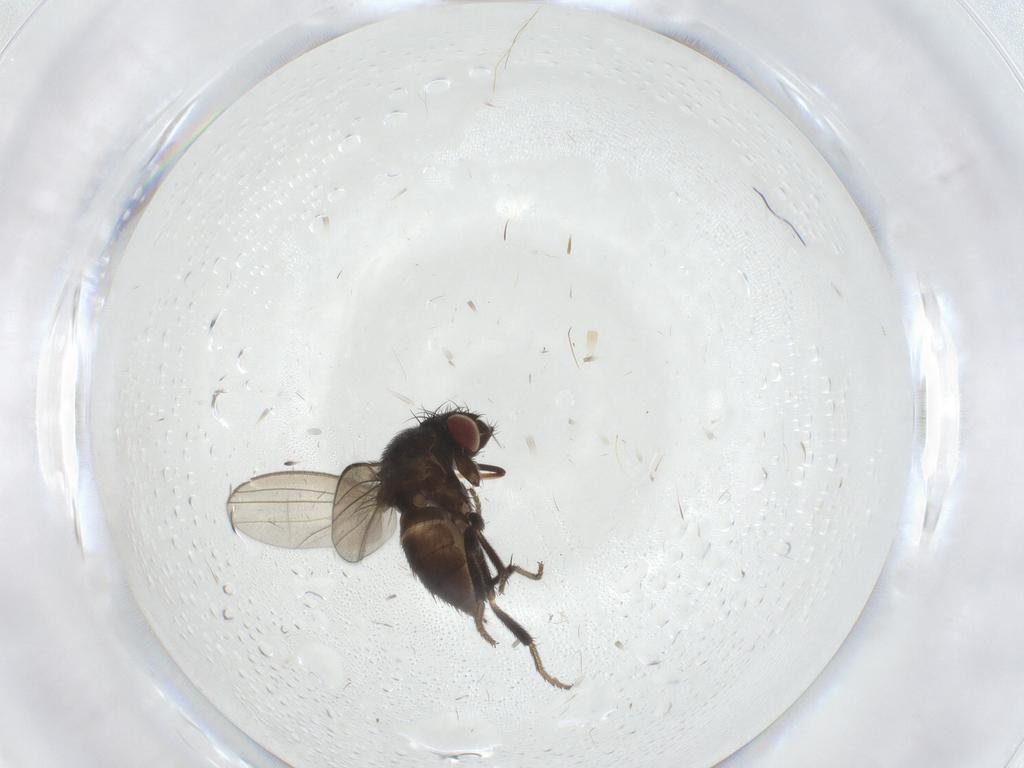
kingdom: Animalia
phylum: Arthropoda
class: Insecta
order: Diptera
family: Milichiidae
